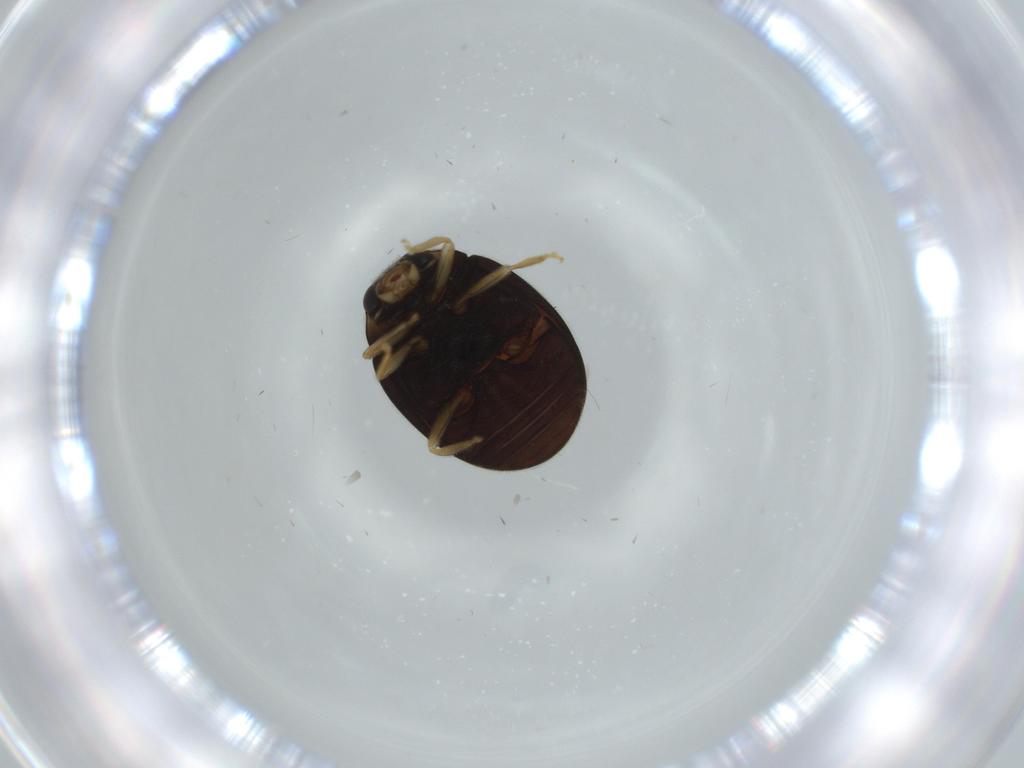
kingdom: Animalia
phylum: Arthropoda
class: Insecta
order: Coleoptera
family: Coccinellidae
